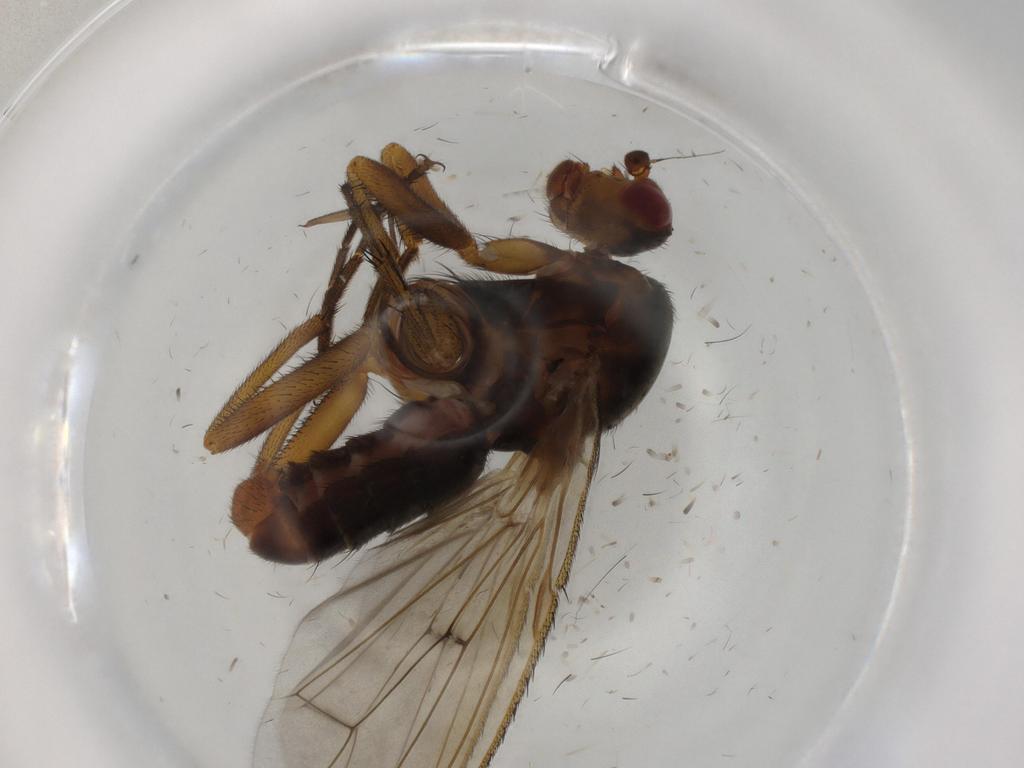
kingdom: Animalia
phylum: Arthropoda
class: Insecta
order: Diptera
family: Heleomyzidae
